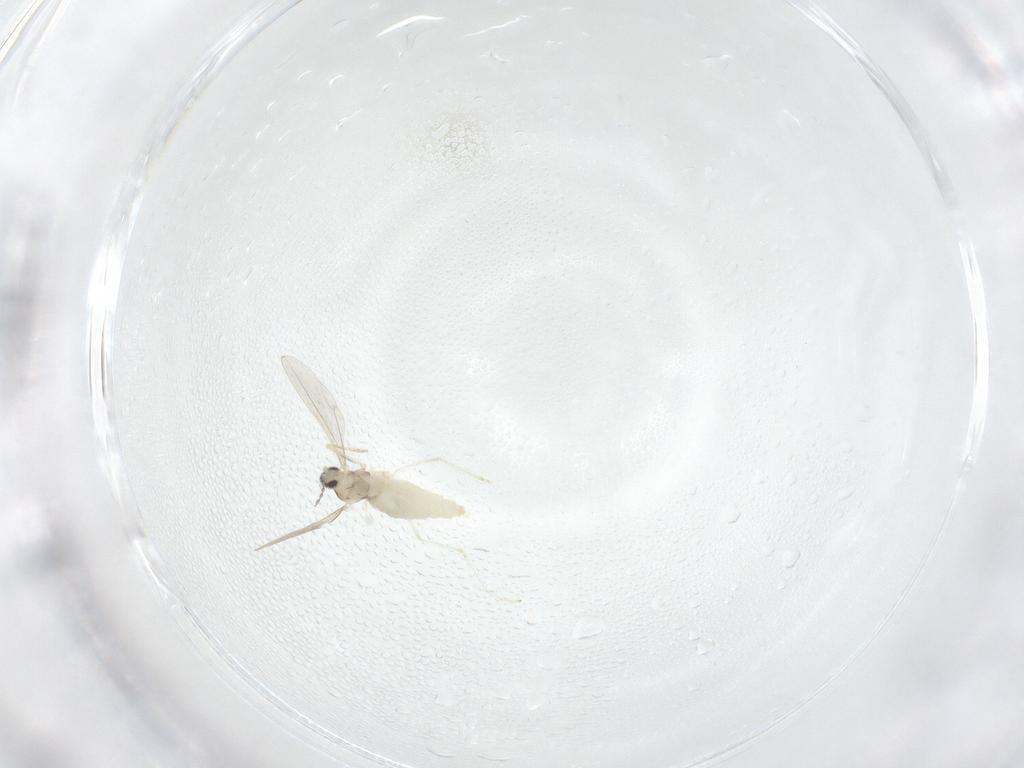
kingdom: Animalia
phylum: Arthropoda
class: Insecta
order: Diptera
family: Cecidomyiidae
